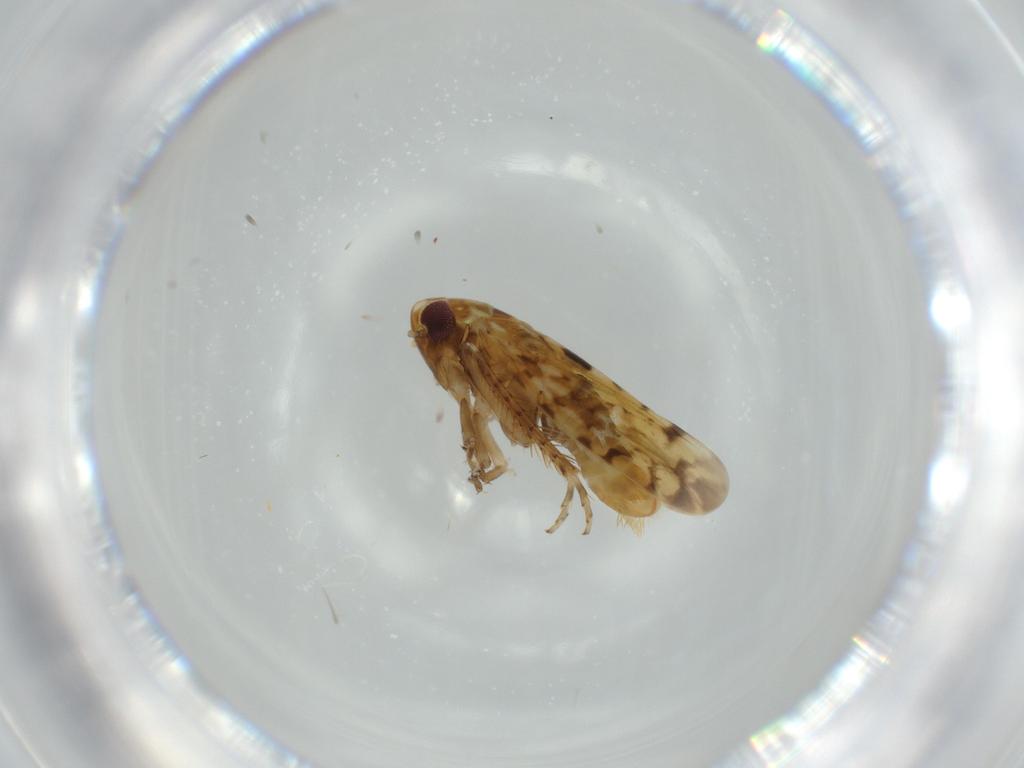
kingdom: Animalia
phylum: Arthropoda
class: Insecta
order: Hemiptera
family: Cicadellidae
